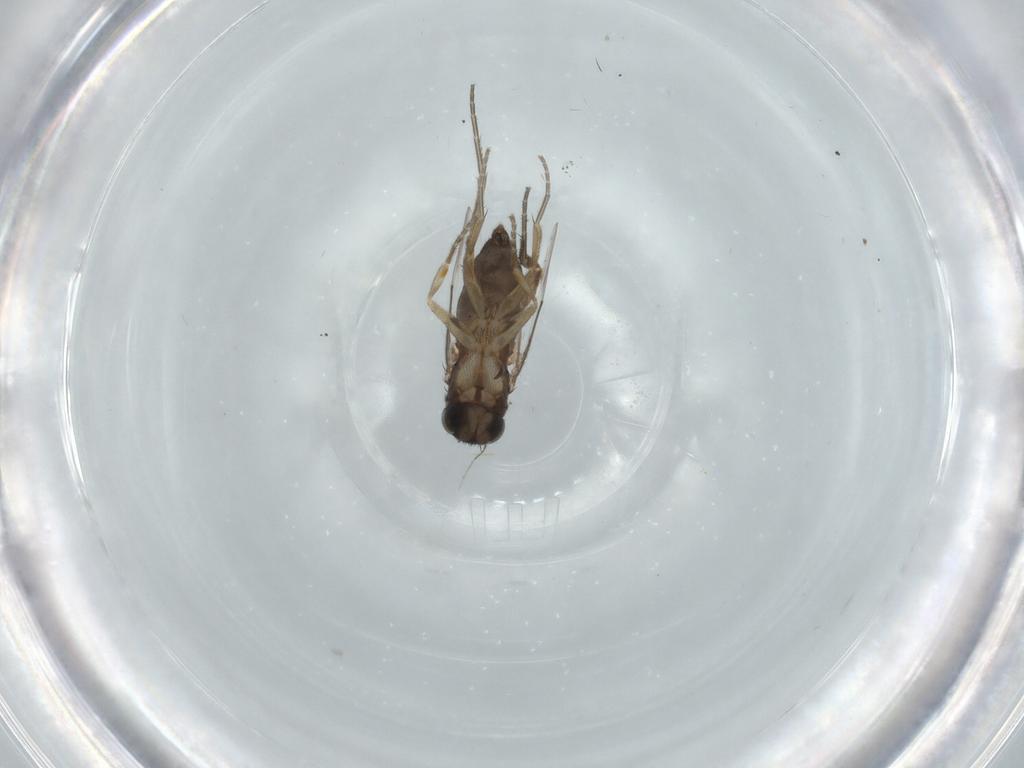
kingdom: Animalia
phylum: Arthropoda
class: Insecta
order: Diptera
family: Phoridae
